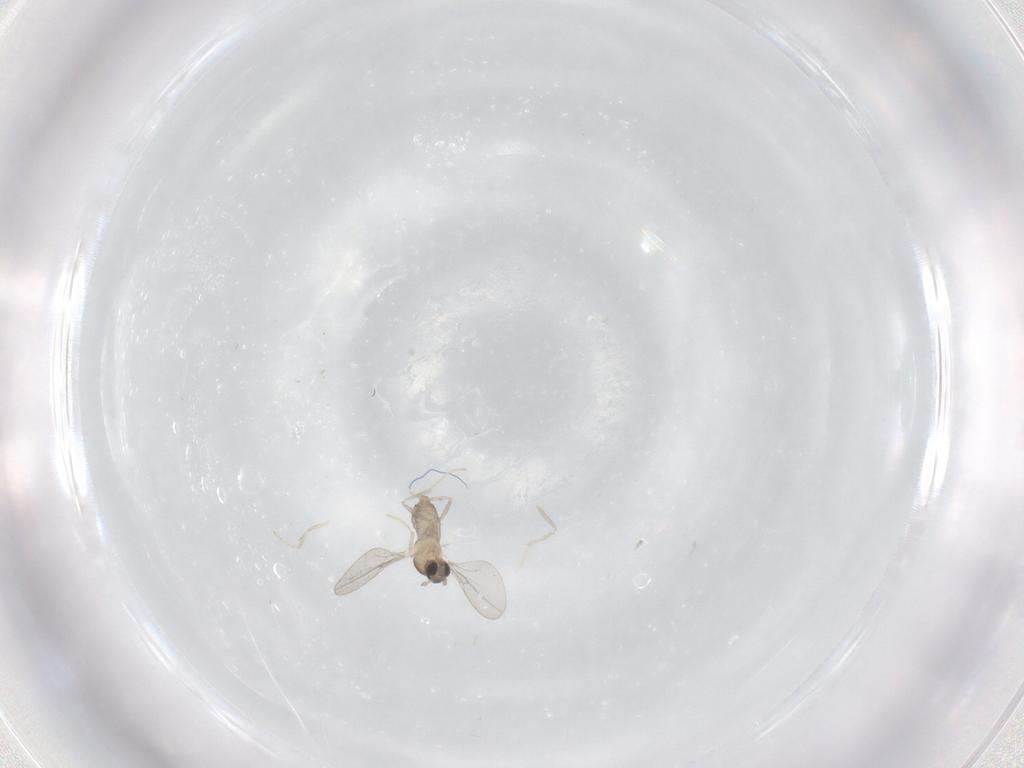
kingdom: Animalia
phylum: Arthropoda
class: Insecta
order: Diptera
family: Cecidomyiidae
